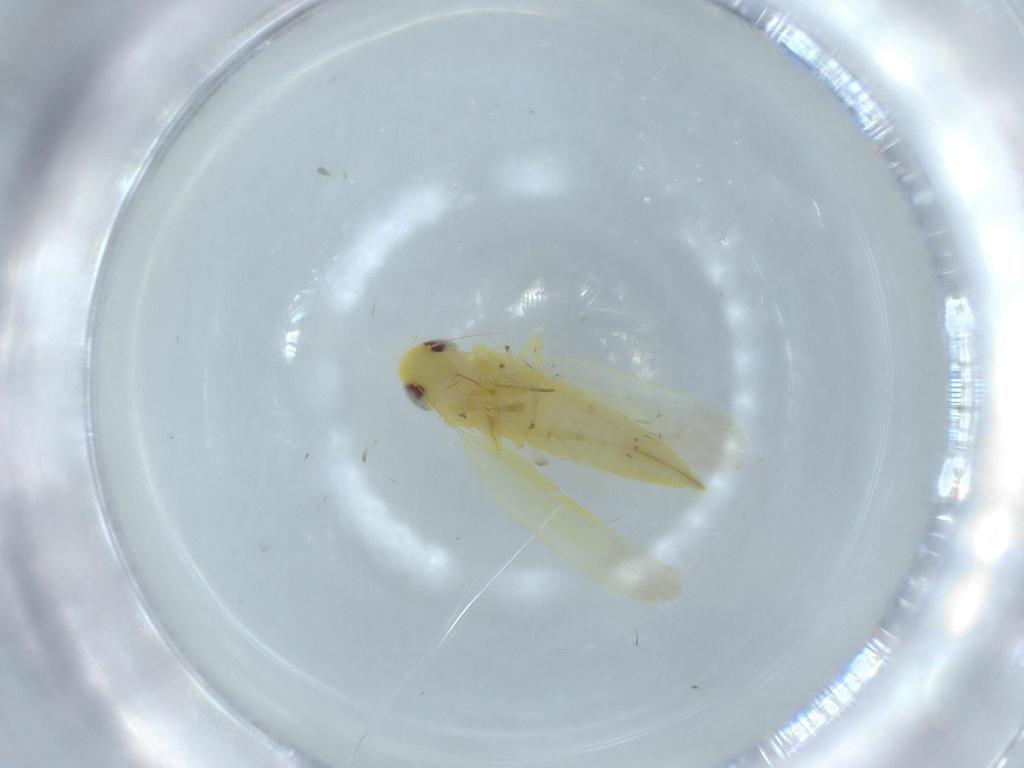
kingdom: Animalia
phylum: Arthropoda
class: Insecta
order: Hemiptera
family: Cicadellidae
